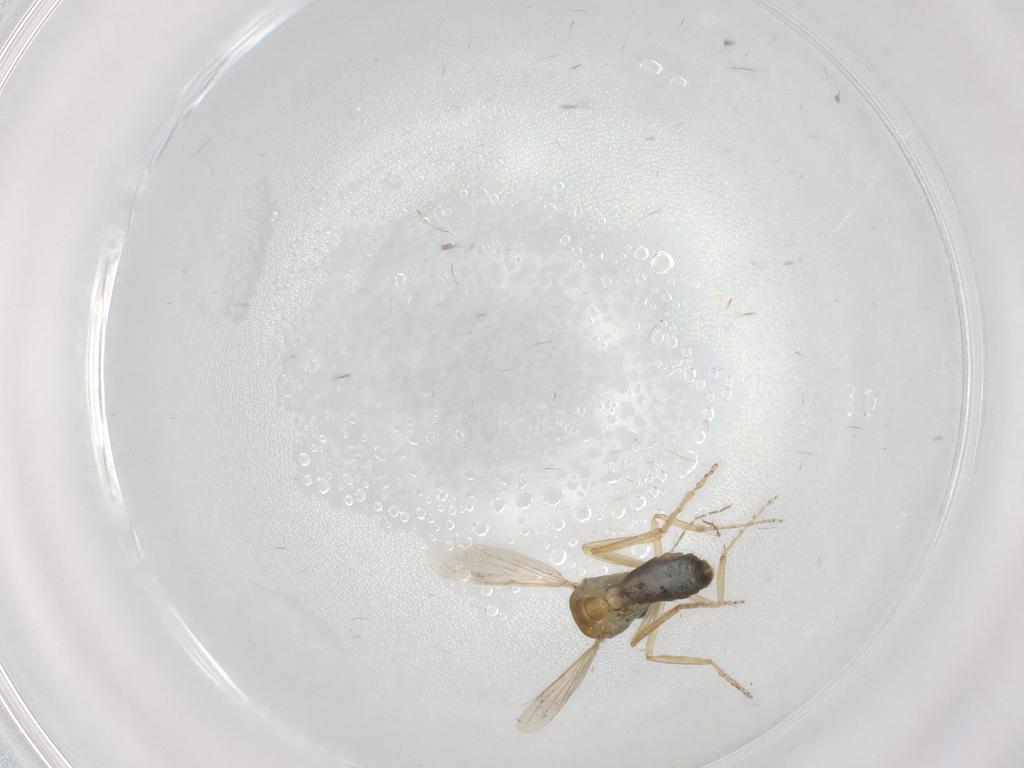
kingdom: Animalia
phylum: Arthropoda
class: Insecta
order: Diptera
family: Ceratopogonidae
